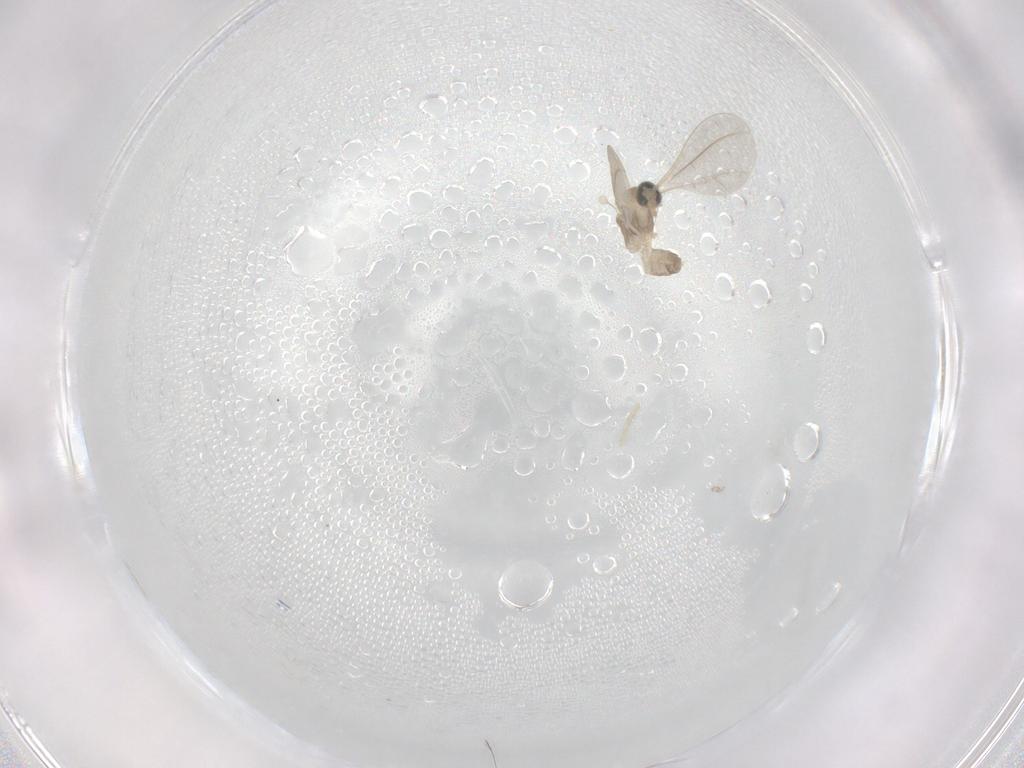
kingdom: Animalia
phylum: Arthropoda
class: Insecta
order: Diptera
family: Cecidomyiidae
